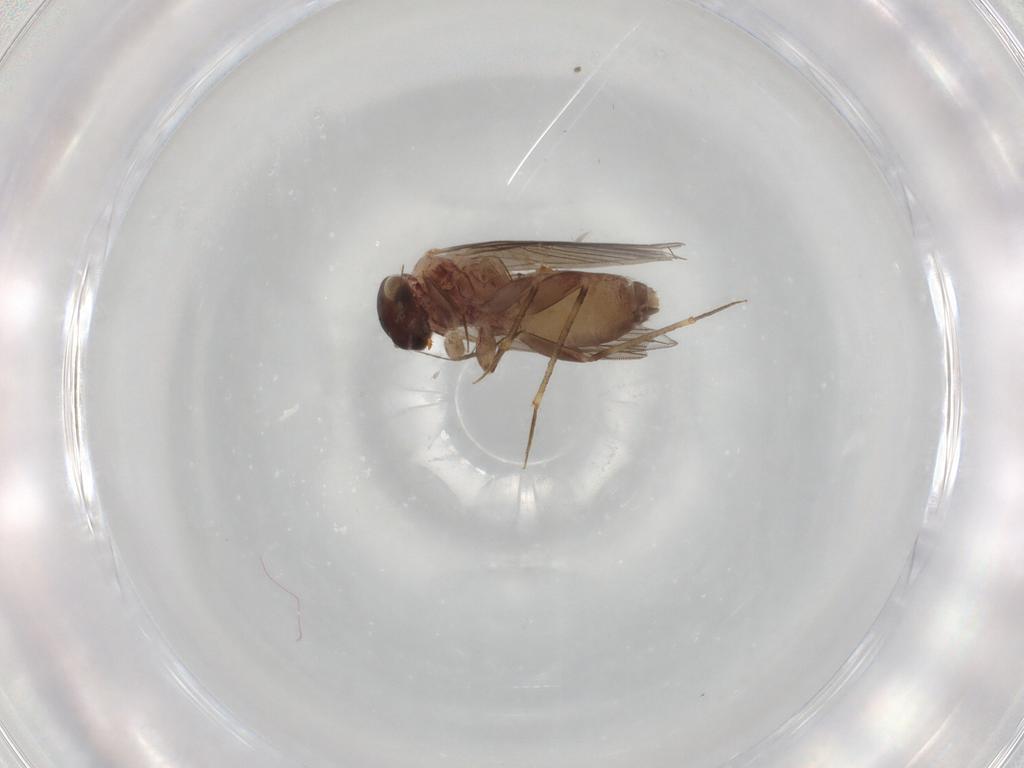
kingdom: Animalia
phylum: Arthropoda
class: Insecta
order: Psocodea
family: Lepidopsocidae
